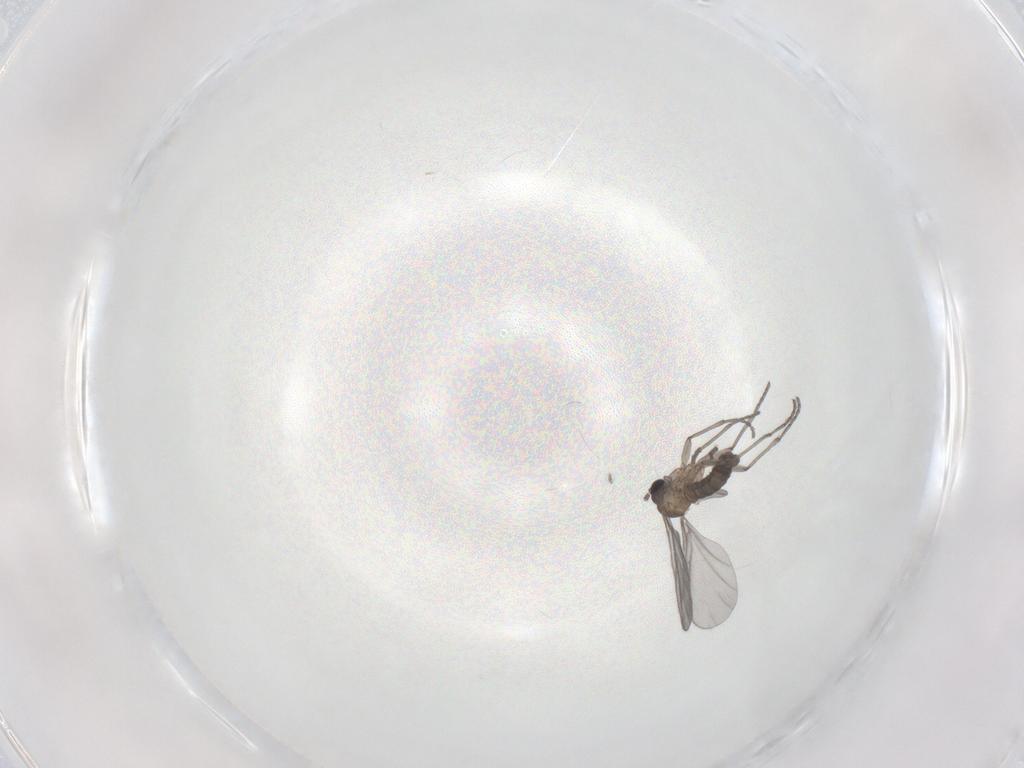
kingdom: Animalia
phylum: Arthropoda
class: Insecta
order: Diptera
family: Sciaridae
